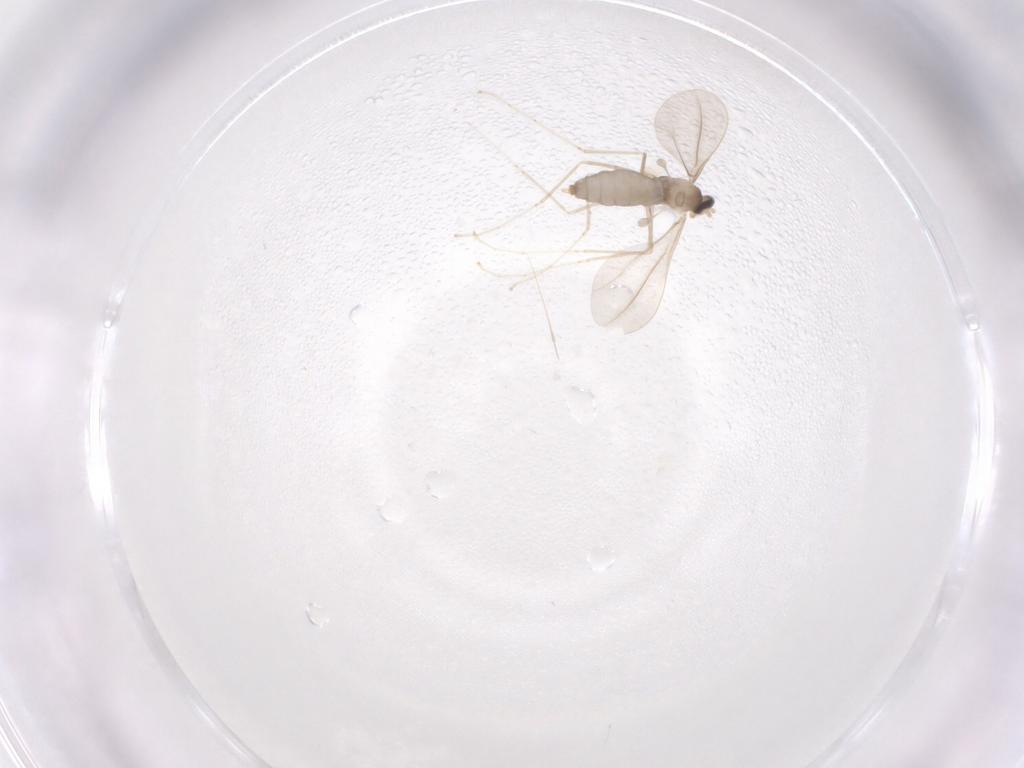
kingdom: Animalia
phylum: Arthropoda
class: Insecta
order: Diptera
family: Cecidomyiidae
